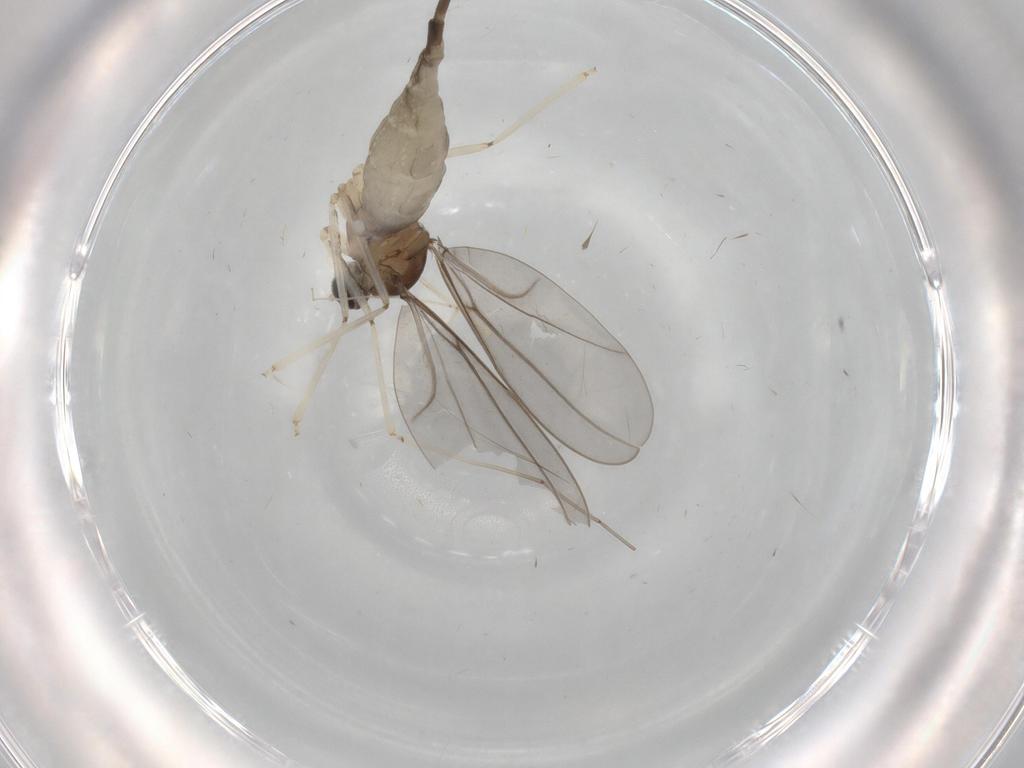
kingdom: Animalia
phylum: Arthropoda
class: Insecta
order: Diptera
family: Cecidomyiidae
